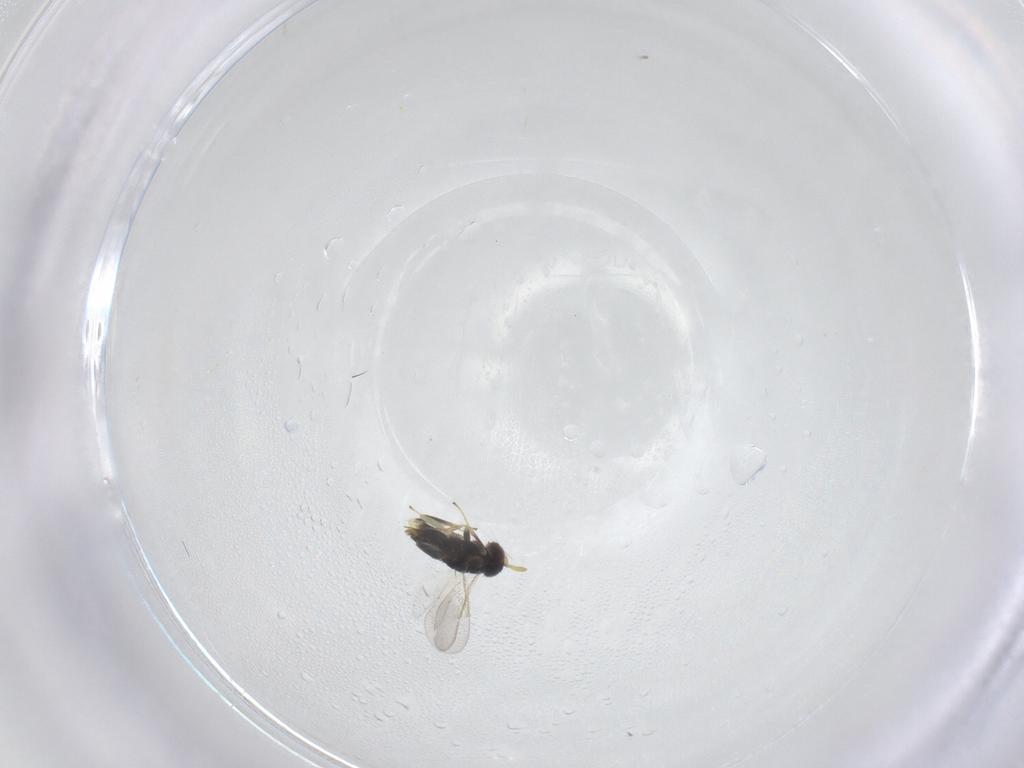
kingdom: Animalia
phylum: Arthropoda
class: Insecta
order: Hymenoptera
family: Aphelinidae
